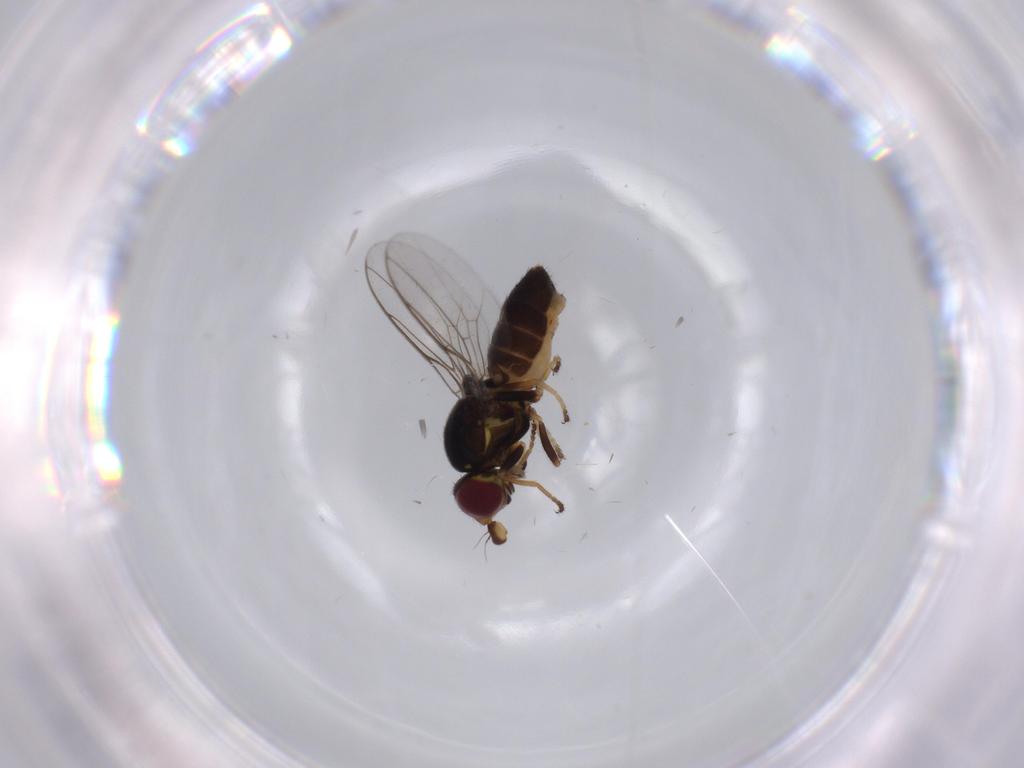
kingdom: Animalia
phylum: Arthropoda
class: Insecta
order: Diptera
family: Chloropidae
